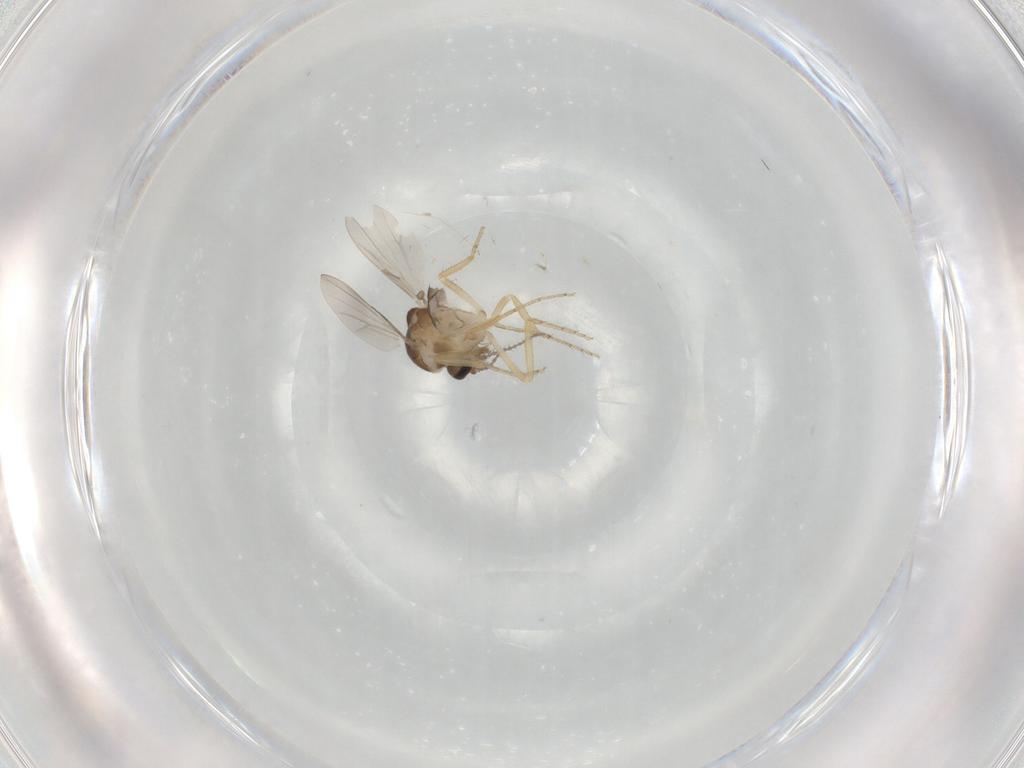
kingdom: Animalia
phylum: Arthropoda
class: Insecta
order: Diptera
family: Ceratopogonidae
